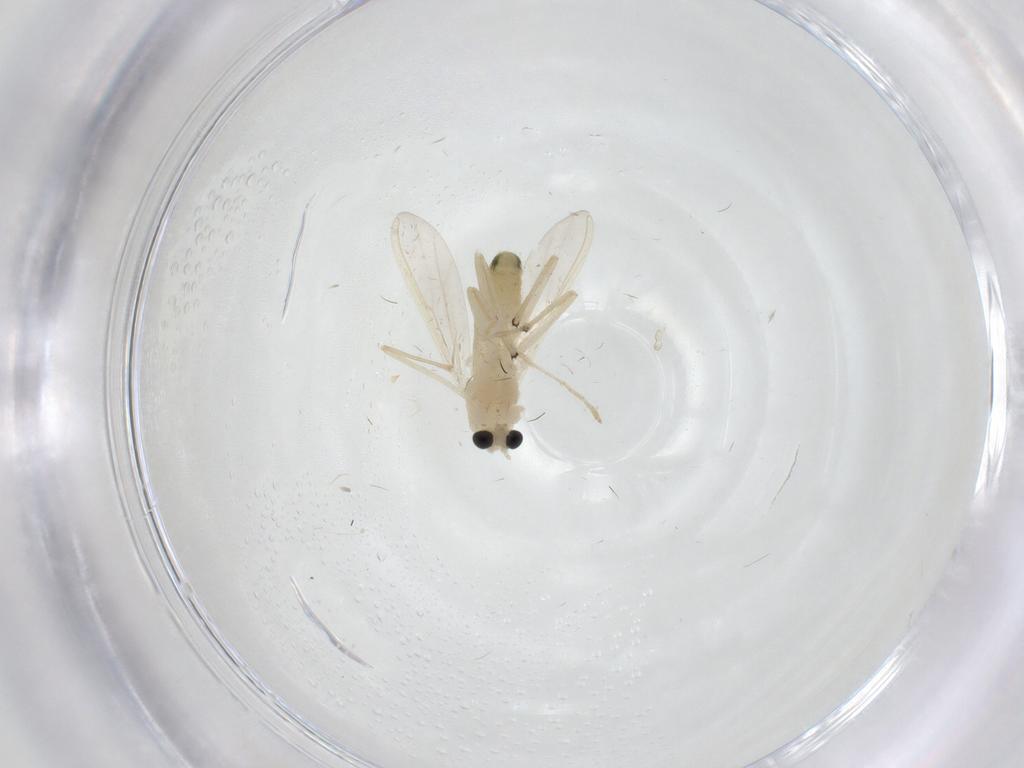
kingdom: Animalia
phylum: Arthropoda
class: Insecta
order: Diptera
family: Chironomidae
